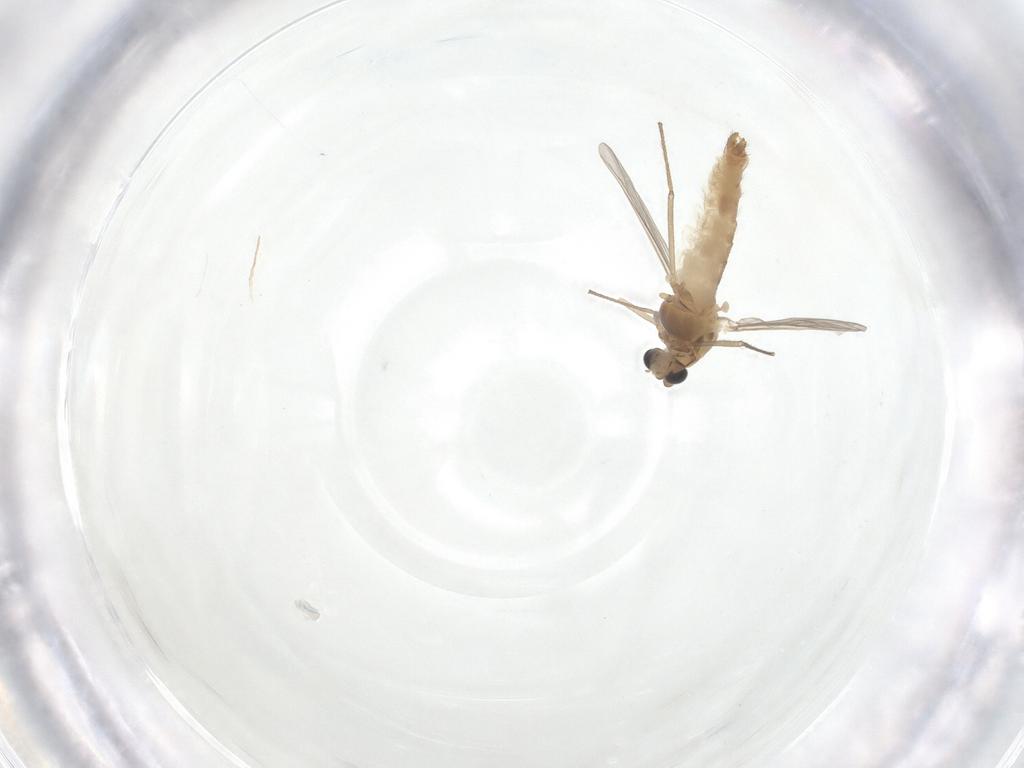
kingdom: Animalia
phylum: Arthropoda
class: Insecta
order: Diptera
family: Chironomidae
